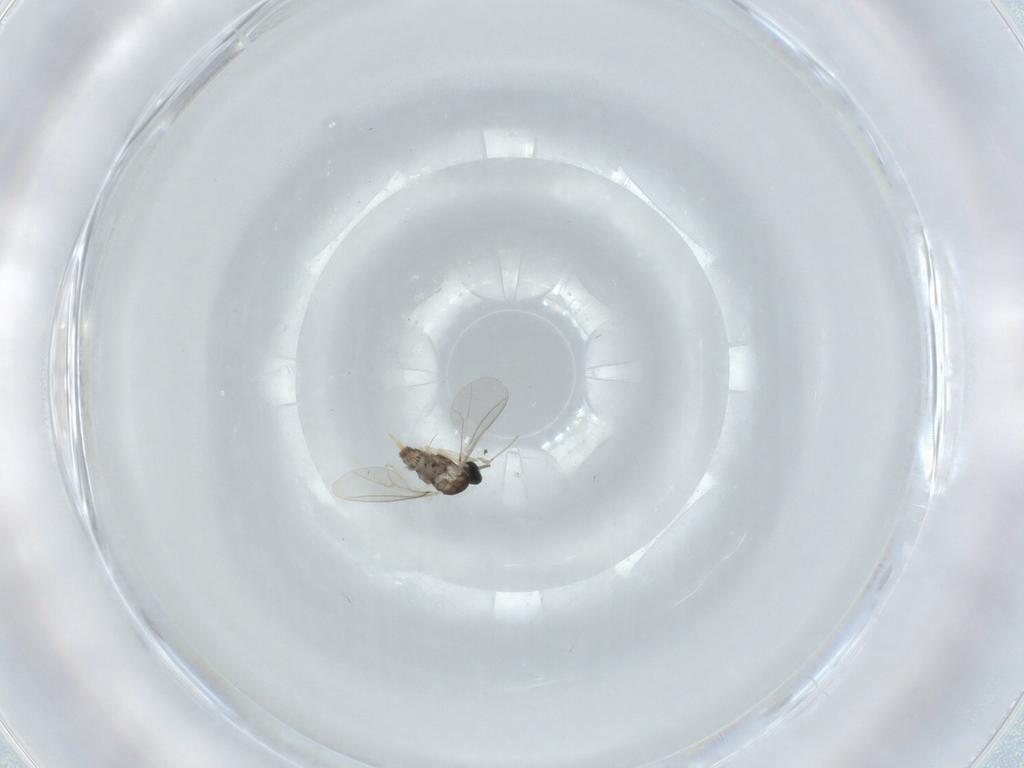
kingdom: Animalia
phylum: Arthropoda
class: Insecta
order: Diptera
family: Cecidomyiidae
